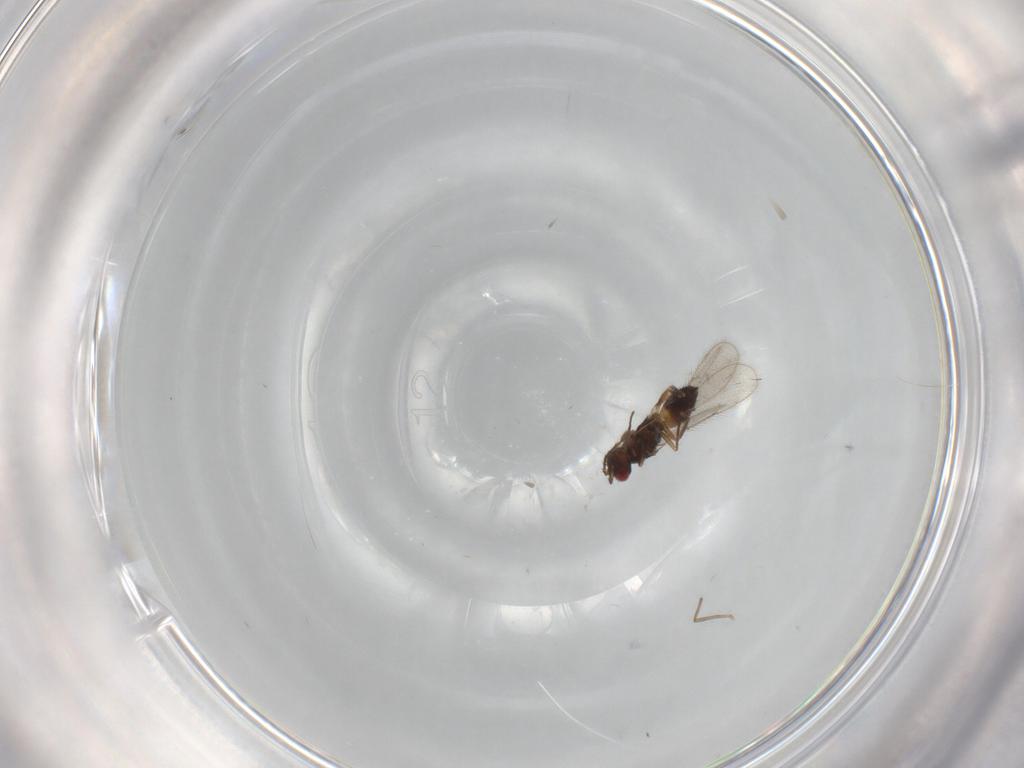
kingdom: Animalia
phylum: Arthropoda
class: Insecta
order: Hymenoptera
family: Eulophidae
